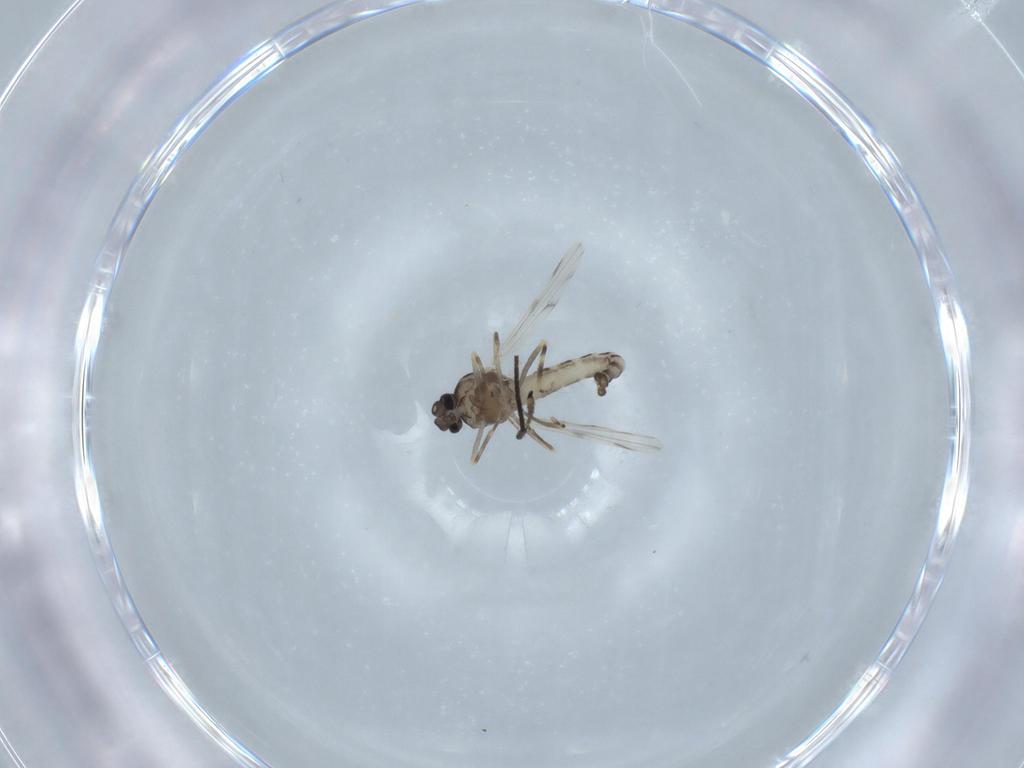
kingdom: Animalia
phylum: Arthropoda
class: Insecta
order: Diptera
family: Ceratopogonidae
